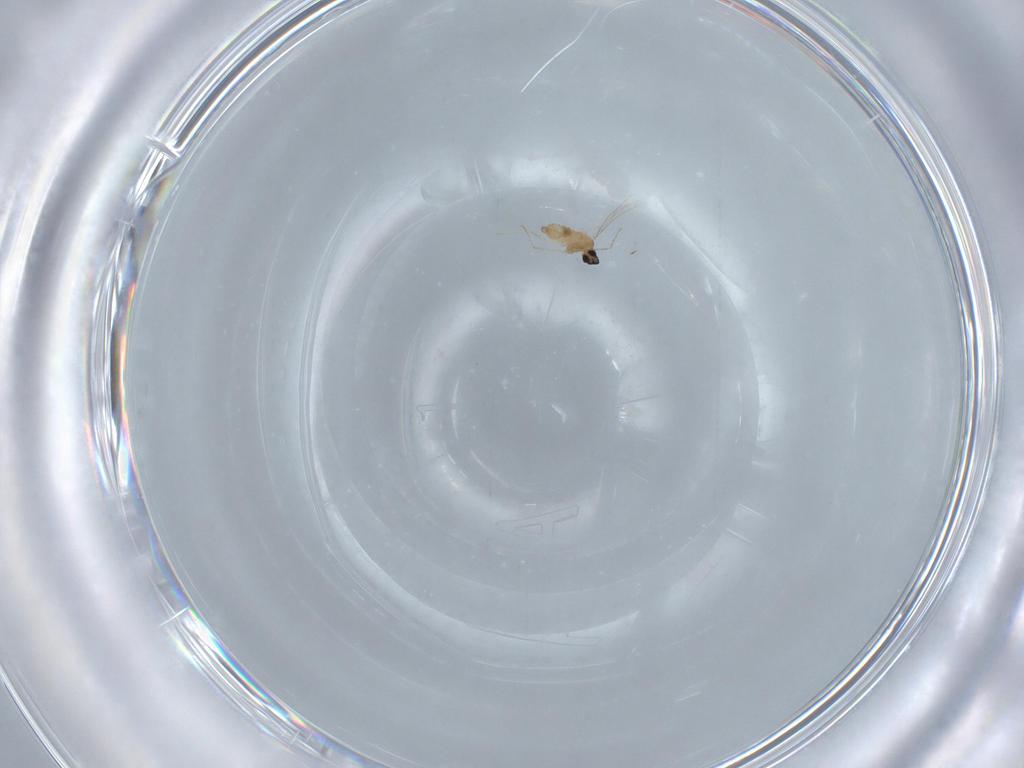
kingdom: Animalia
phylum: Arthropoda
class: Insecta
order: Diptera
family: Cecidomyiidae
